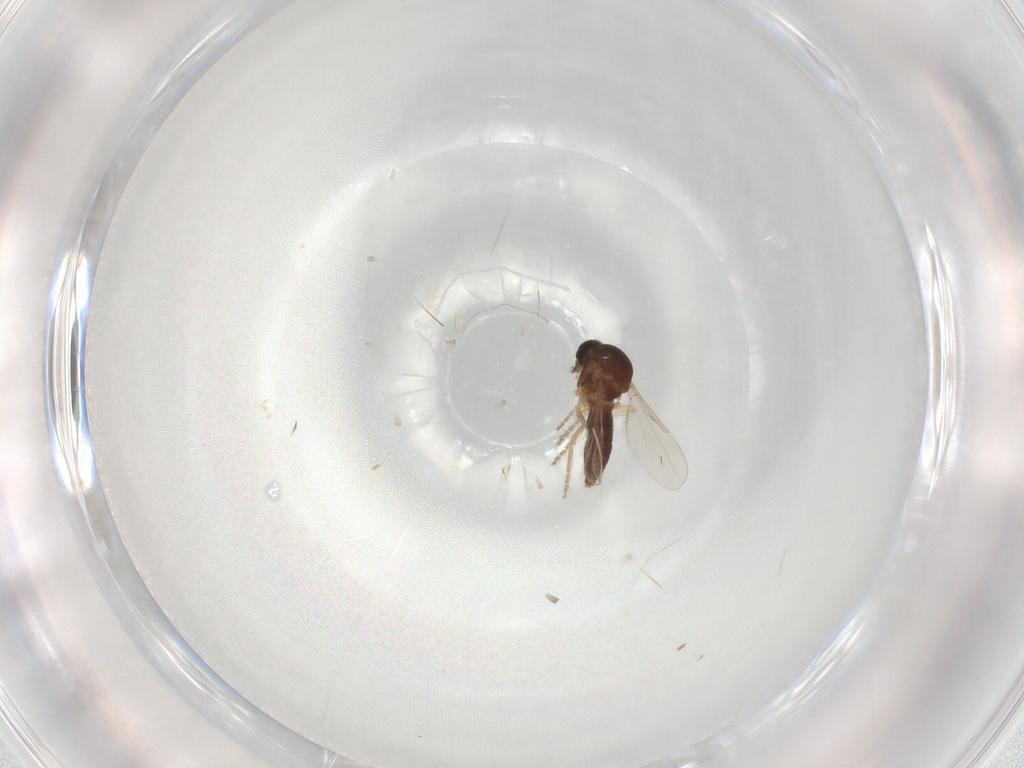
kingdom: Animalia
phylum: Arthropoda
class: Insecta
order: Diptera
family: Ceratopogonidae
